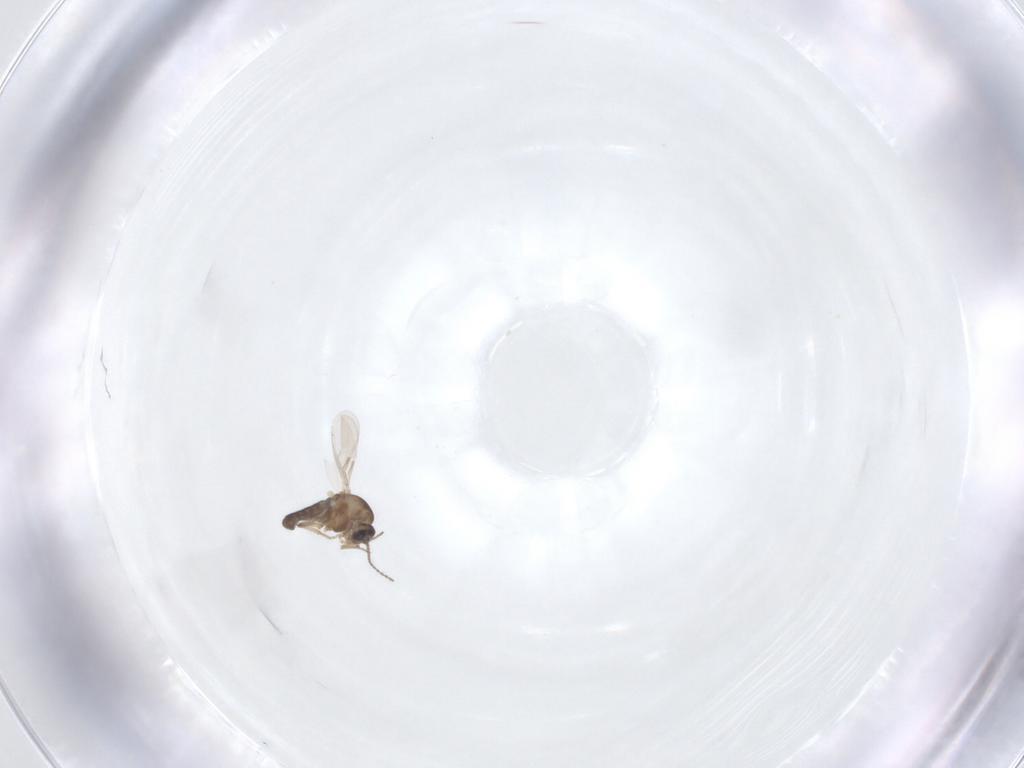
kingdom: Animalia
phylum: Arthropoda
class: Insecta
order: Diptera
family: Ceratopogonidae
